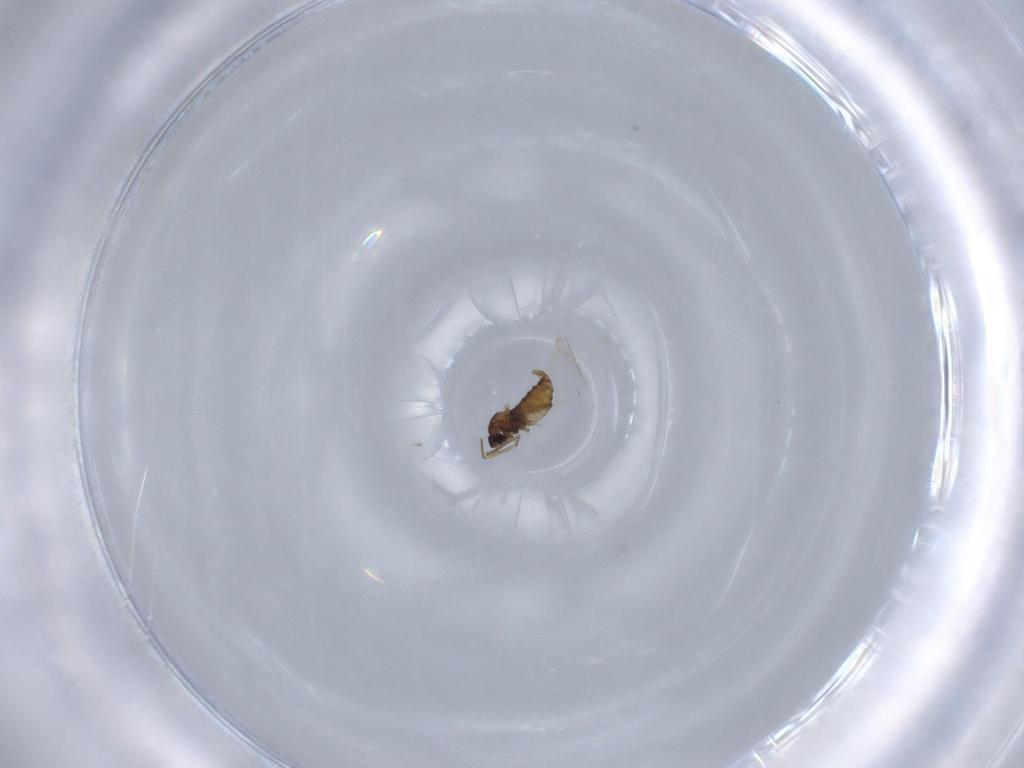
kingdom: Animalia
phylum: Arthropoda
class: Insecta
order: Diptera
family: Cecidomyiidae
